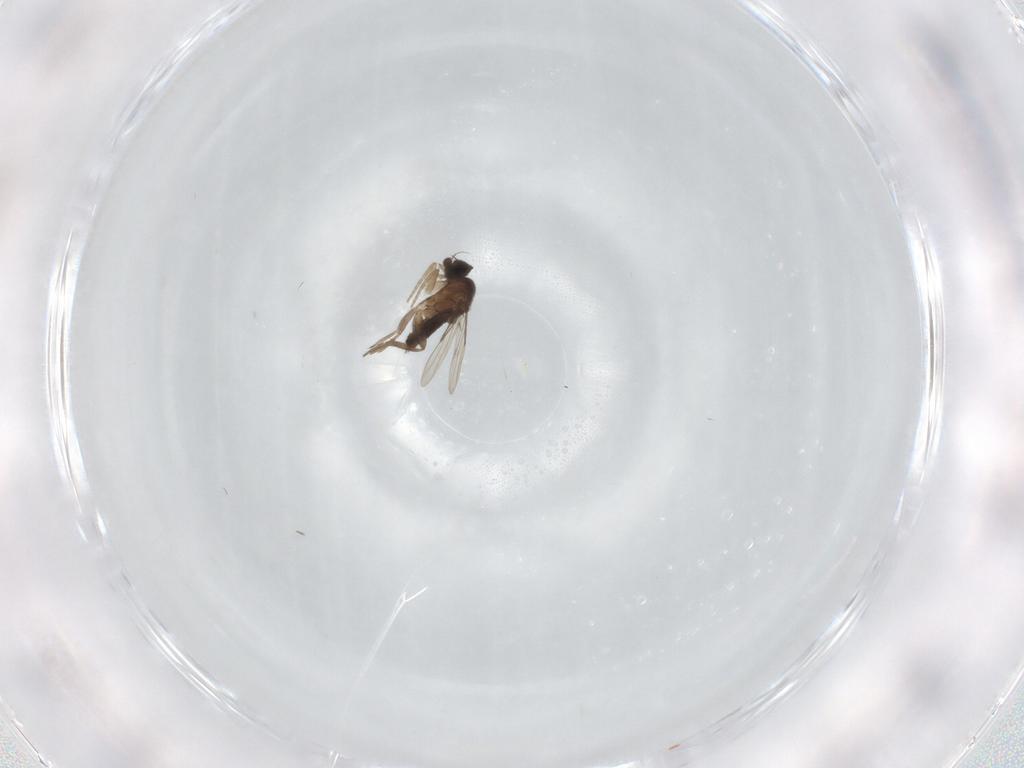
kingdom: Animalia
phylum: Arthropoda
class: Insecta
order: Diptera
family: Phoridae
